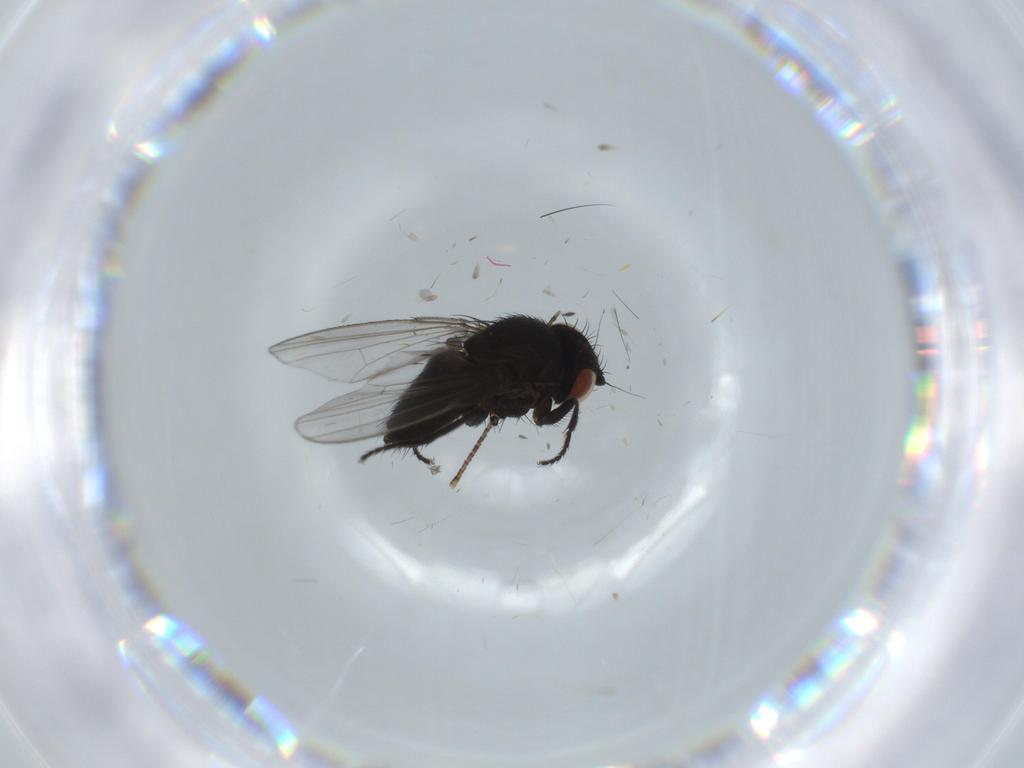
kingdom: Animalia
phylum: Arthropoda
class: Insecta
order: Diptera
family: Milichiidae
